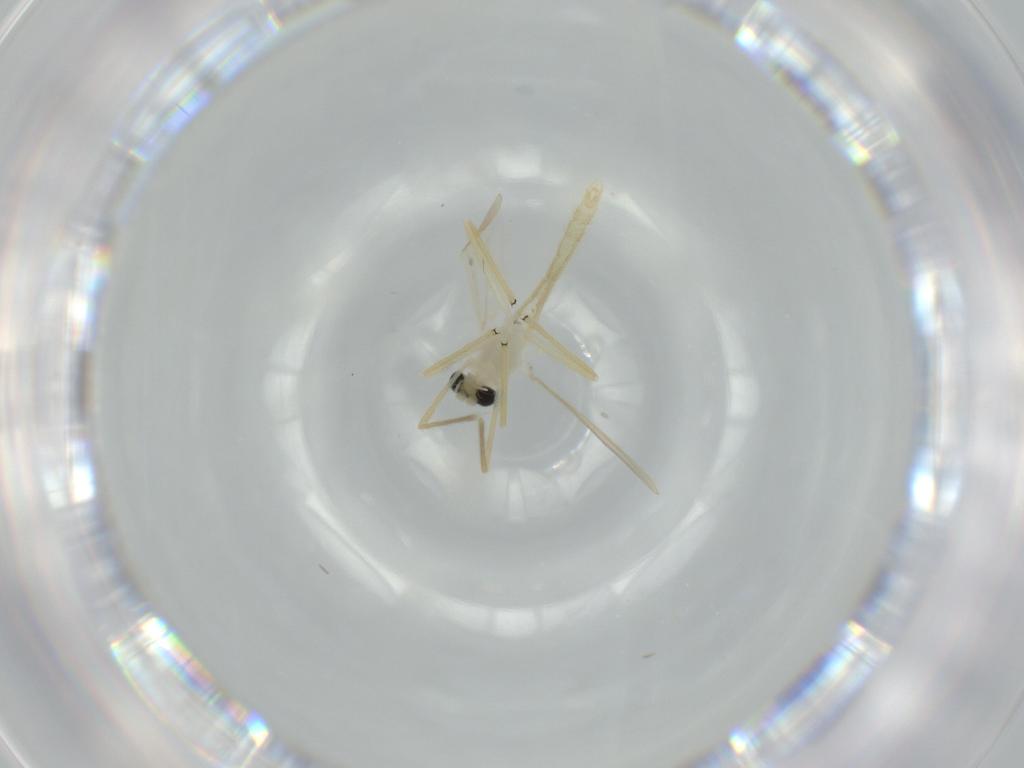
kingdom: Animalia
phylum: Arthropoda
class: Insecta
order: Diptera
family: Chironomidae
